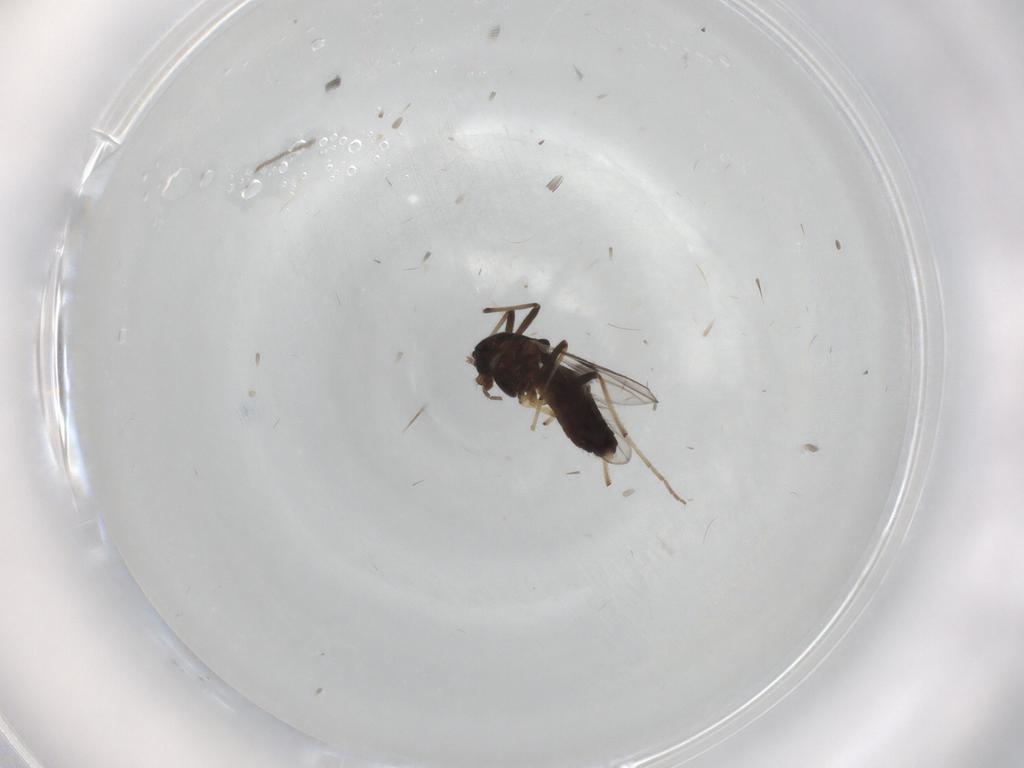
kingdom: Animalia
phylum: Arthropoda
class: Insecta
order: Diptera
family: Chironomidae
